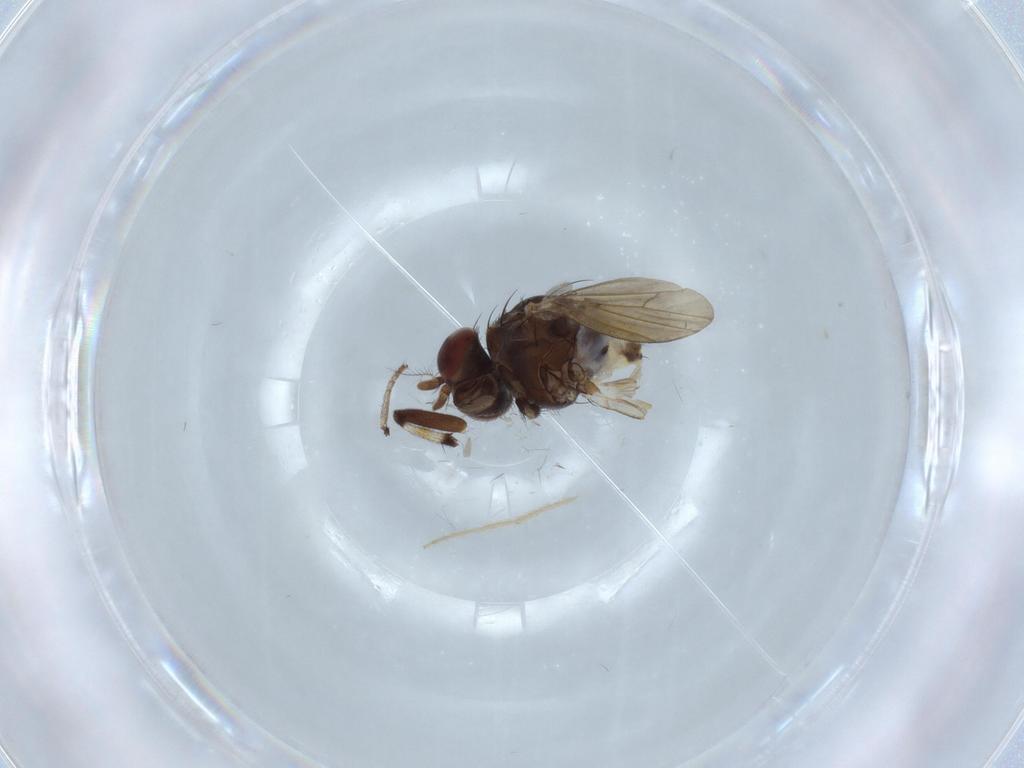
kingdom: Animalia
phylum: Arthropoda
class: Insecta
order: Diptera
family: Chironomidae
